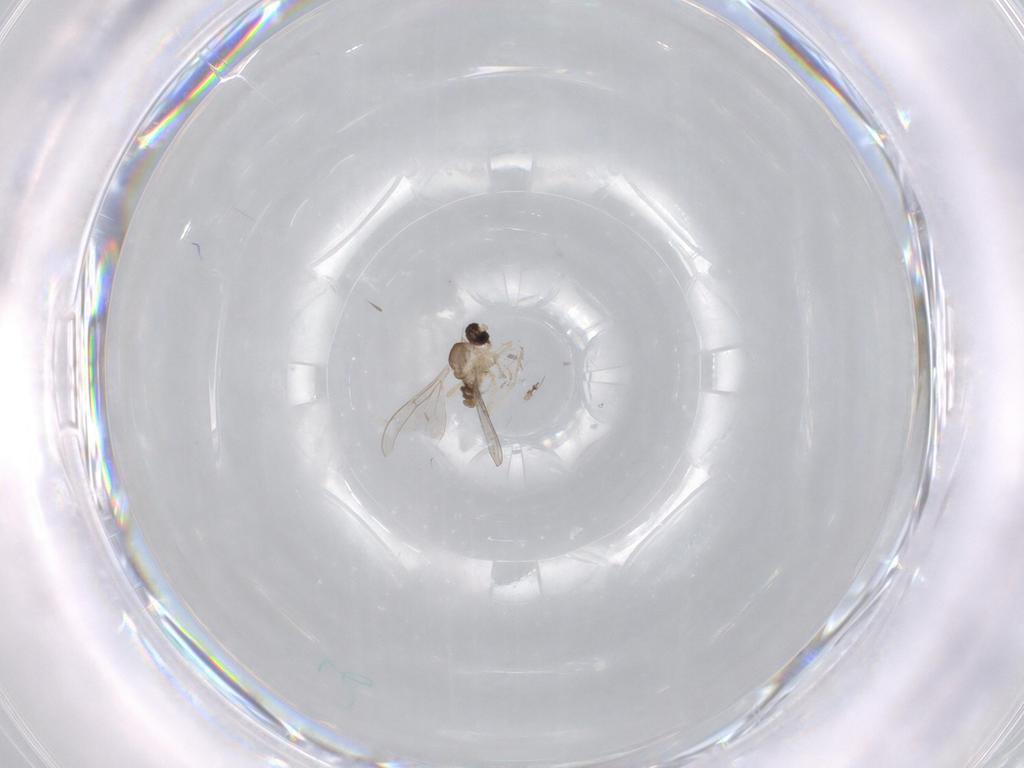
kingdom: Animalia
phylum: Arthropoda
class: Insecta
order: Diptera
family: Cecidomyiidae
